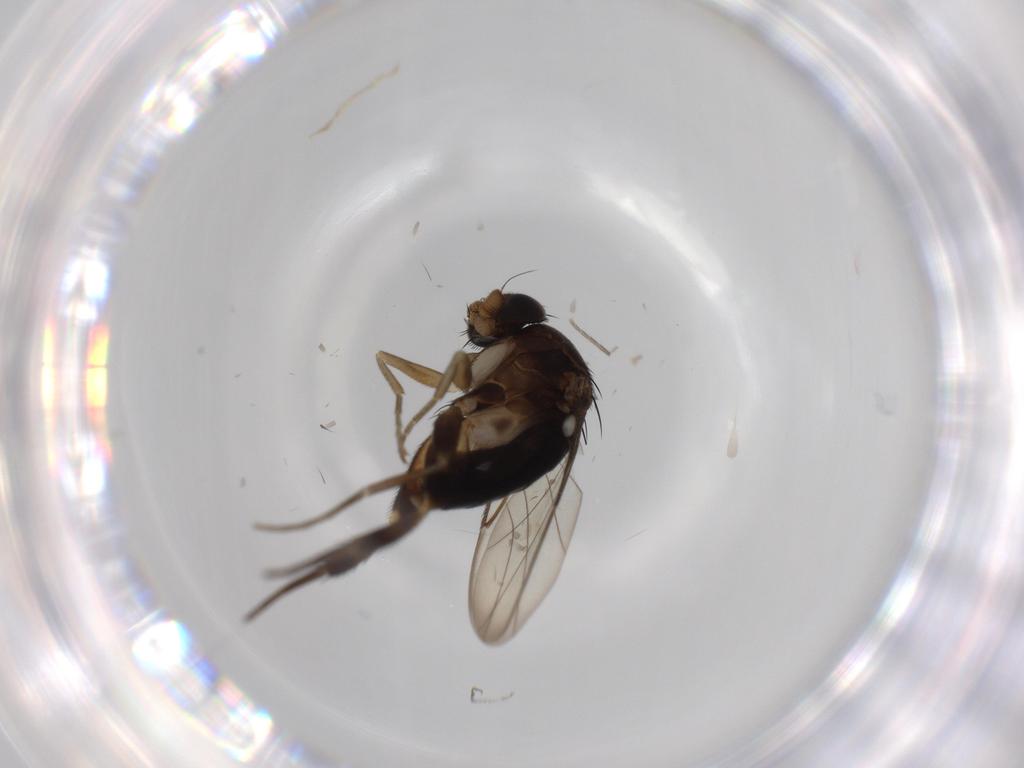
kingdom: Animalia
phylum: Arthropoda
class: Insecta
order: Diptera
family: Phoridae
